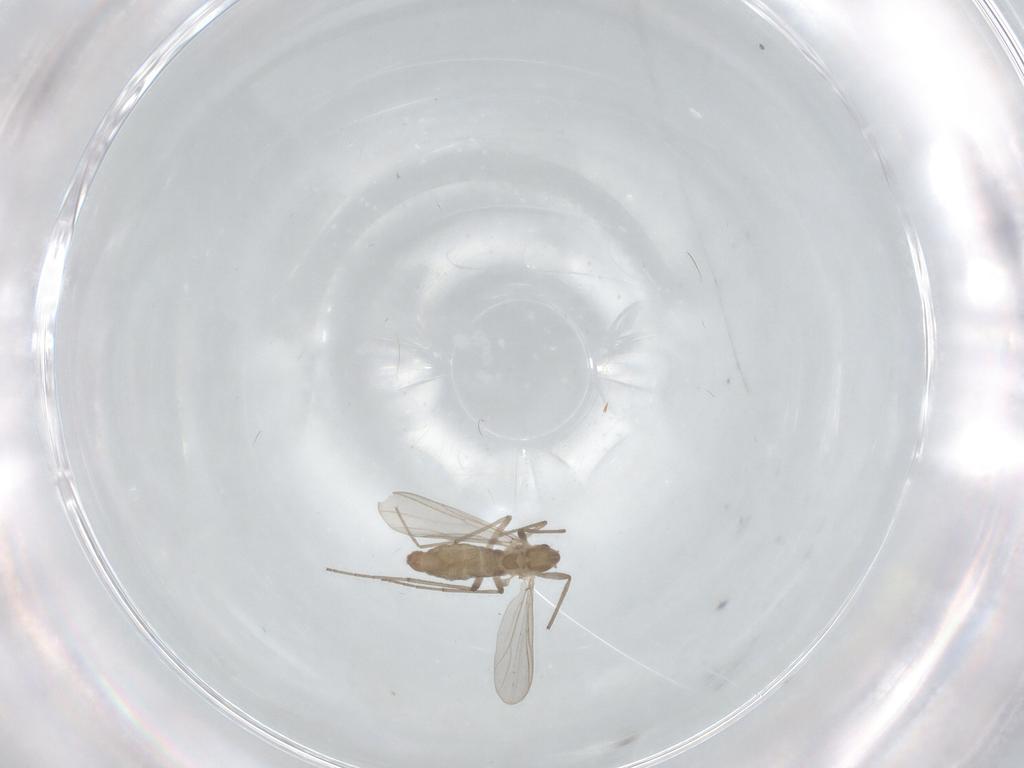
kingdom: Animalia
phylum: Arthropoda
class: Insecta
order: Diptera
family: Chironomidae
